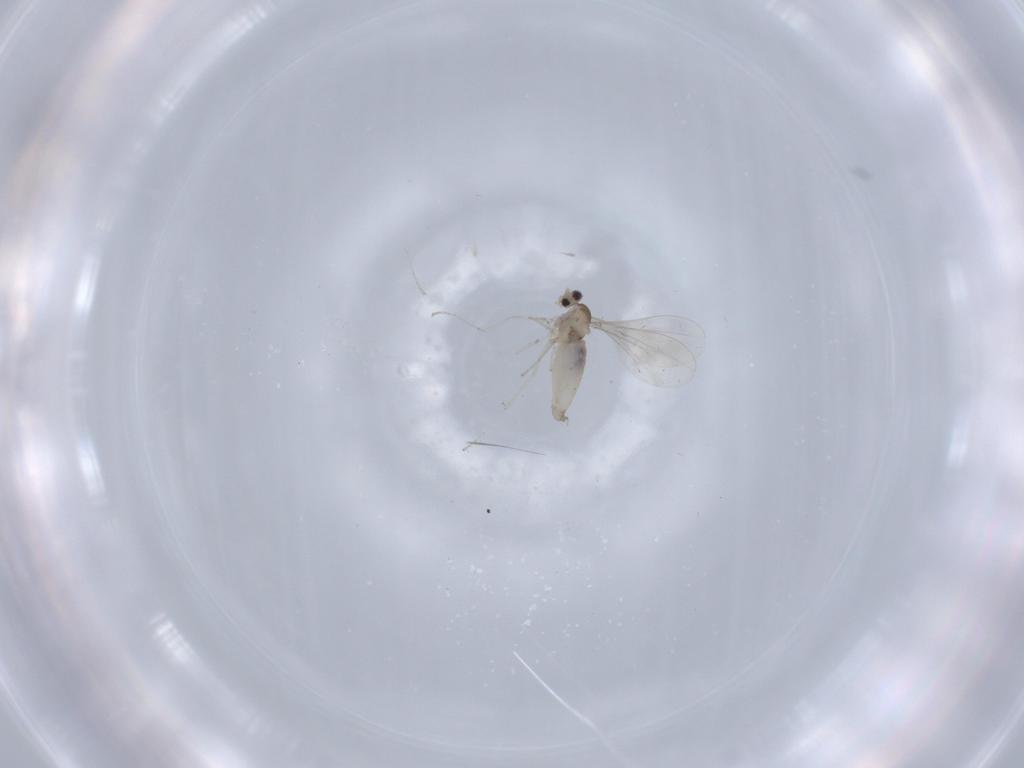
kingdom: Animalia
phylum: Arthropoda
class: Insecta
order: Diptera
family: Cecidomyiidae
